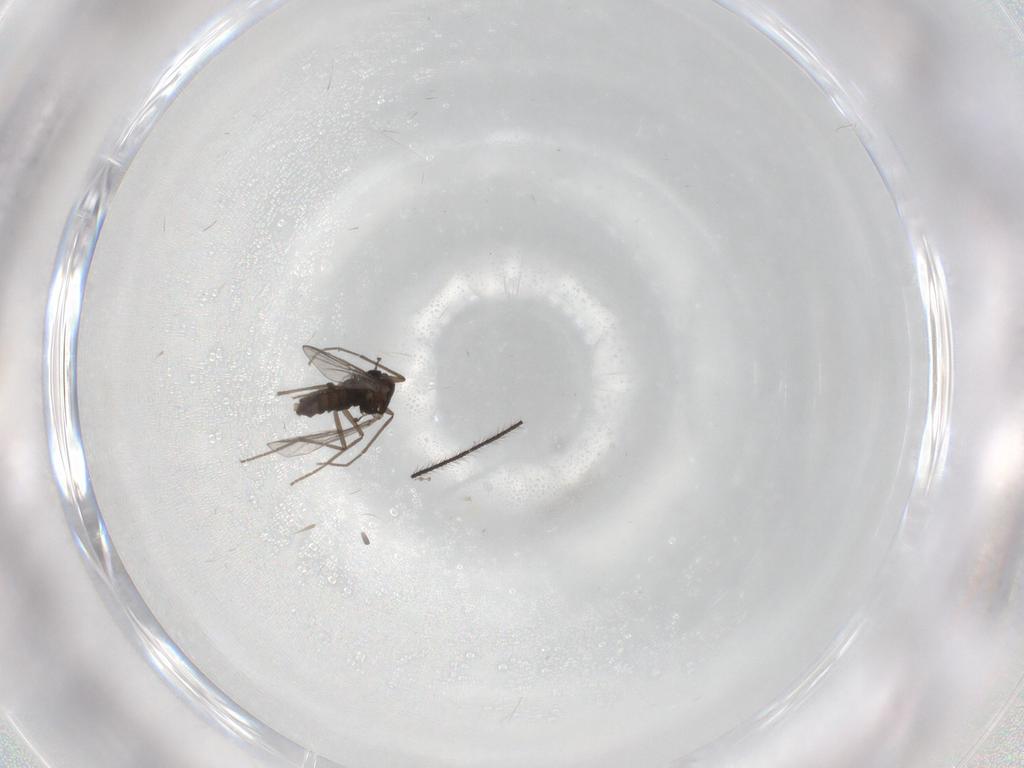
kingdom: Animalia
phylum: Arthropoda
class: Insecta
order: Diptera
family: Chironomidae
